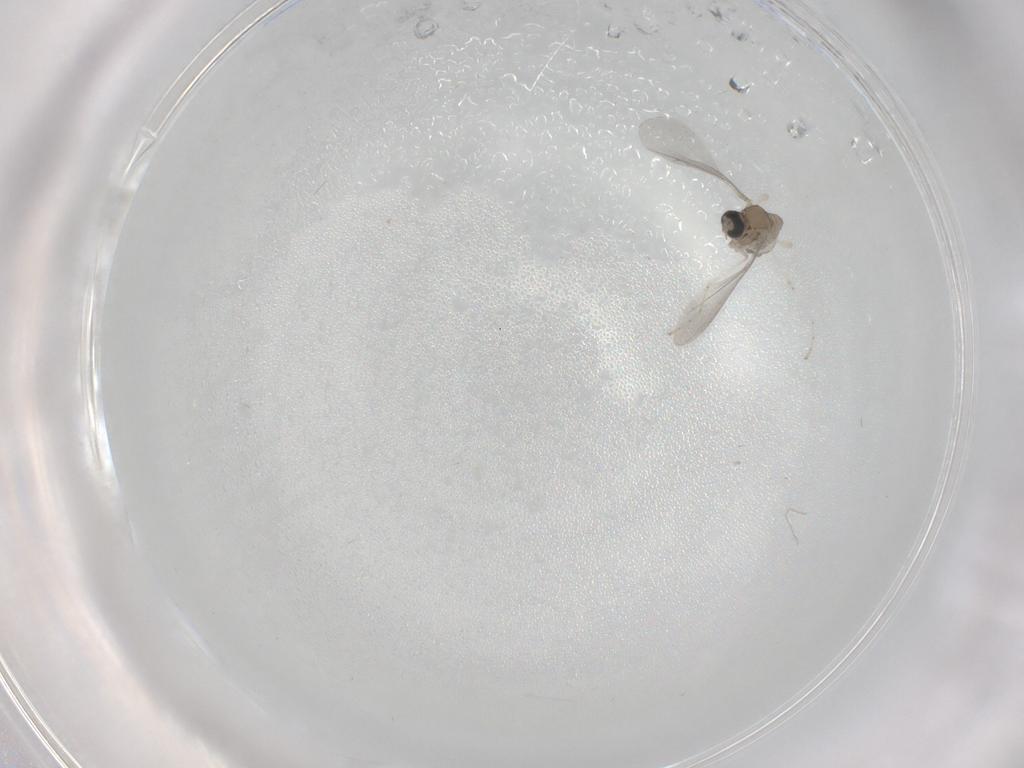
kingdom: Animalia
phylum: Arthropoda
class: Insecta
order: Diptera
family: Cecidomyiidae
